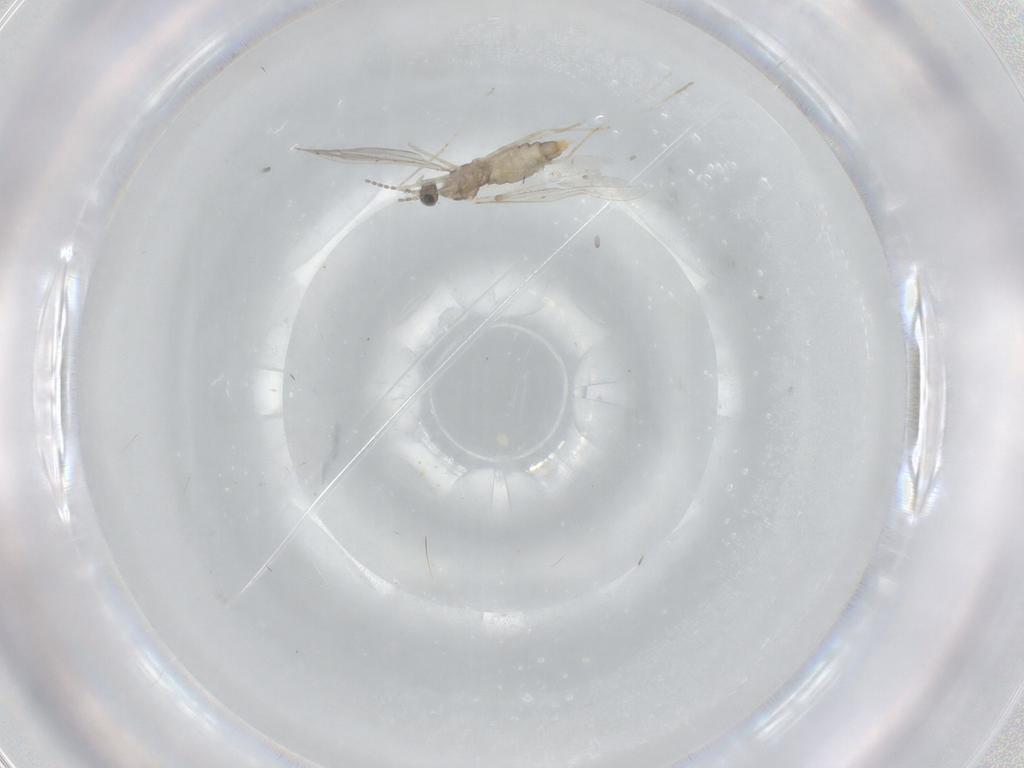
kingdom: Animalia
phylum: Arthropoda
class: Insecta
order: Diptera
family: Cecidomyiidae
